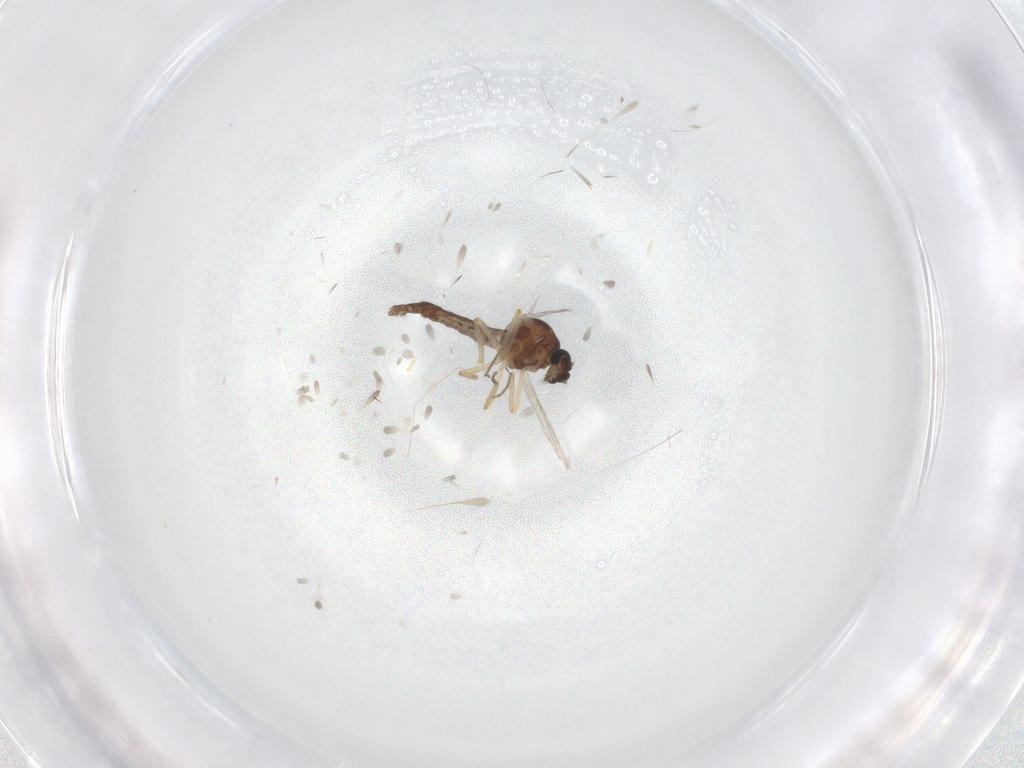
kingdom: Animalia
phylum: Arthropoda
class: Insecta
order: Diptera
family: Ceratopogonidae
